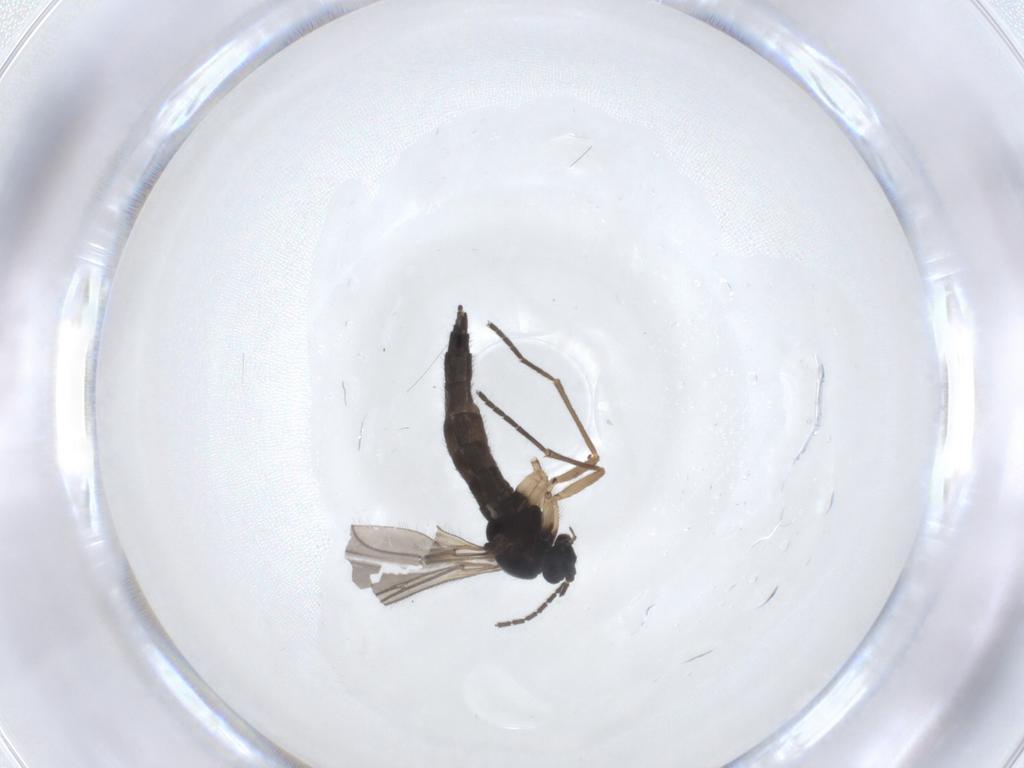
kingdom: Animalia
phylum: Arthropoda
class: Insecta
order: Diptera
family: Sciaridae
